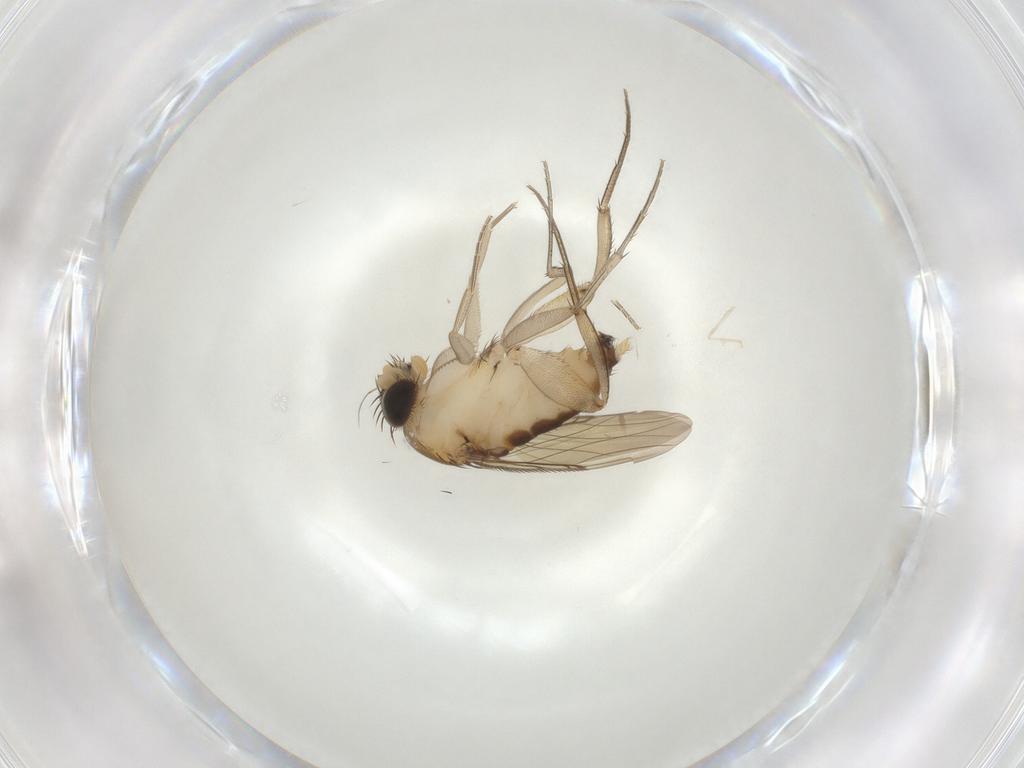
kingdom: Animalia
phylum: Arthropoda
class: Insecta
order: Diptera
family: Phoridae
